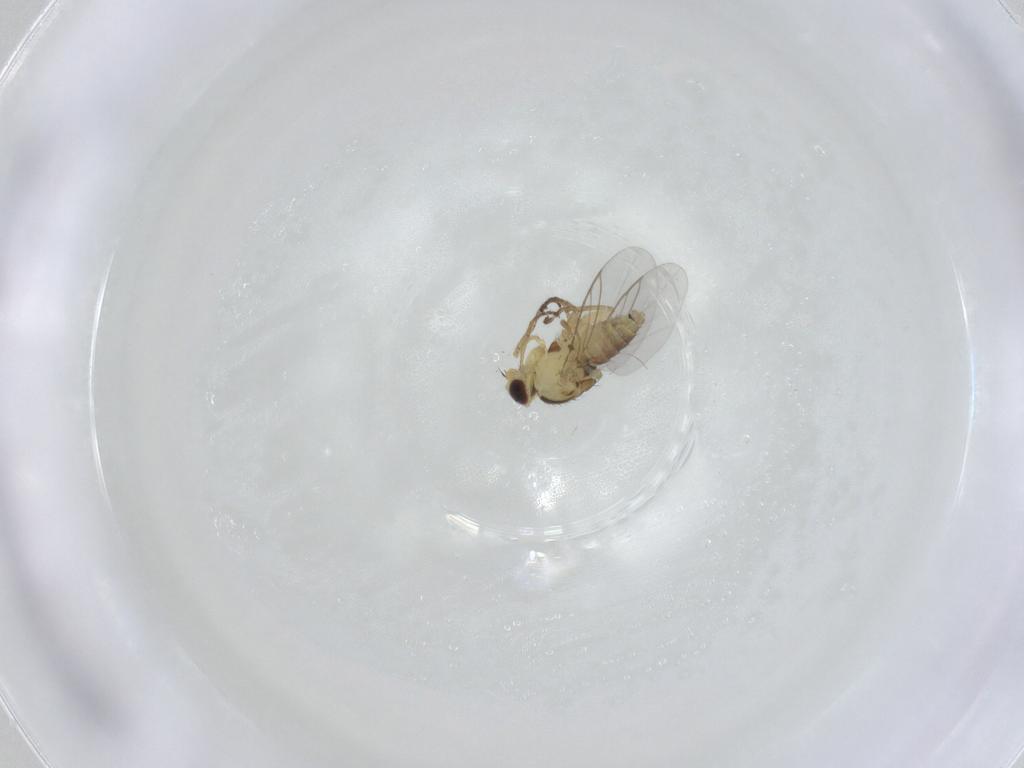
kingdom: Animalia
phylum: Arthropoda
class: Insecta
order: Diptera
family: Agromyzidae
